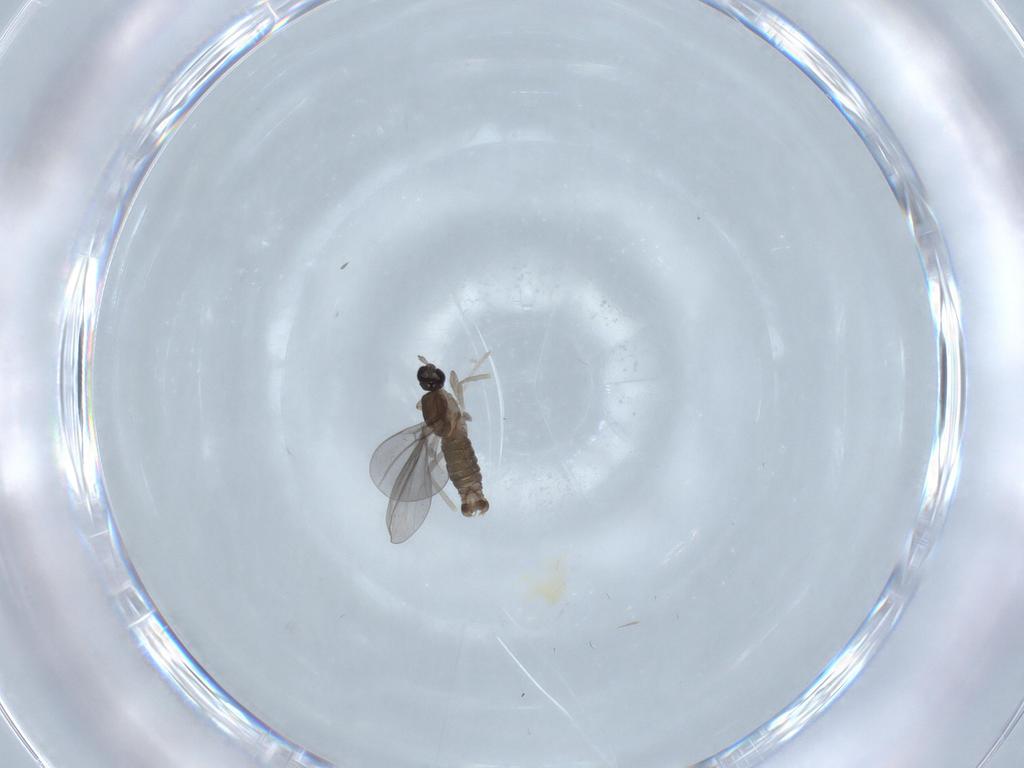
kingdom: Animalia
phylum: Arthropoda
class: Insecta
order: Diptera
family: Cecidomyiidae
